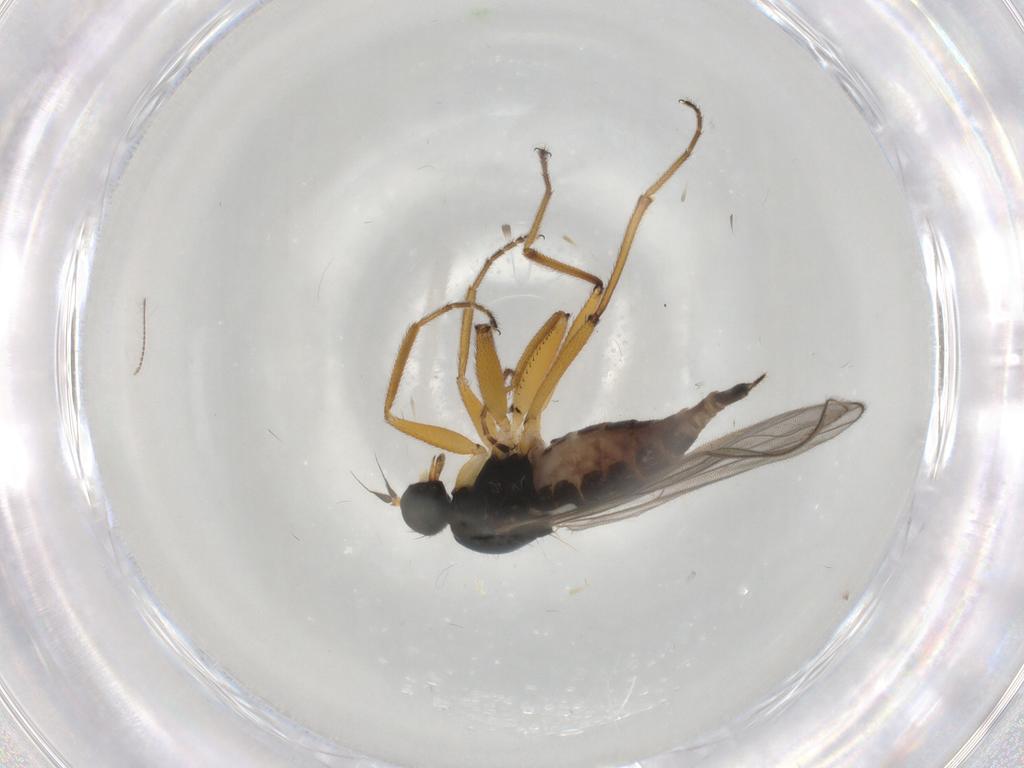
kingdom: Animalia
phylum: Arthropoda
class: Insecta
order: Diptera
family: Hybotidae
